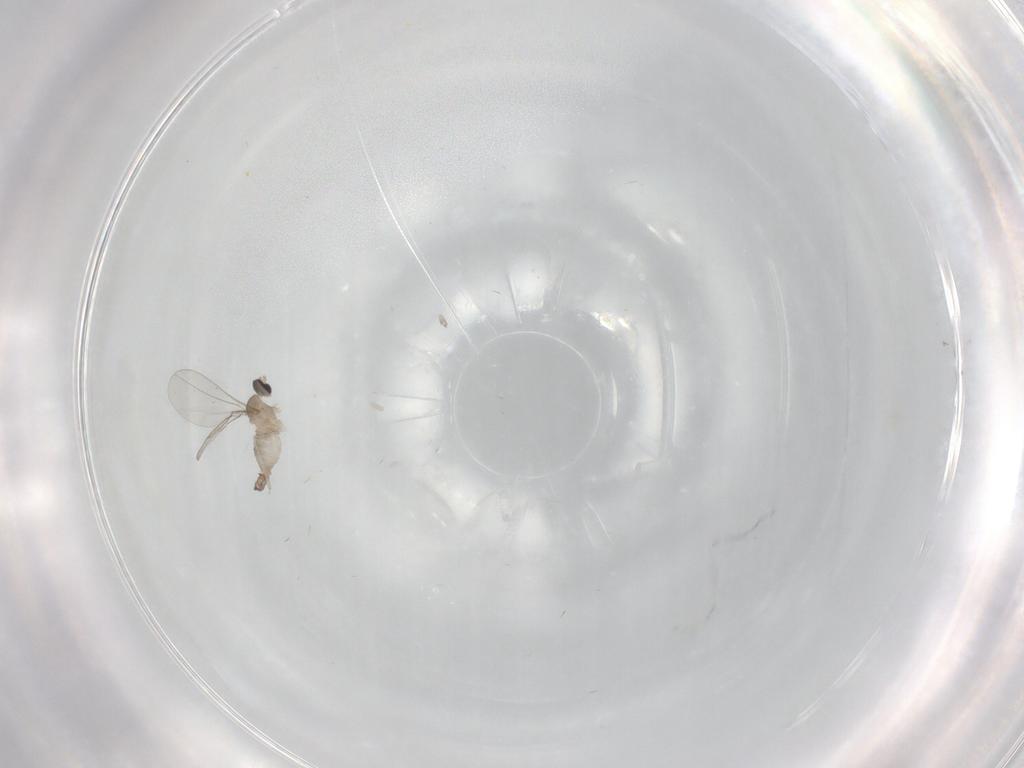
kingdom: Animalia
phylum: Arthropoda
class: Insecta
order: Diptera
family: Cecidomyiidae
